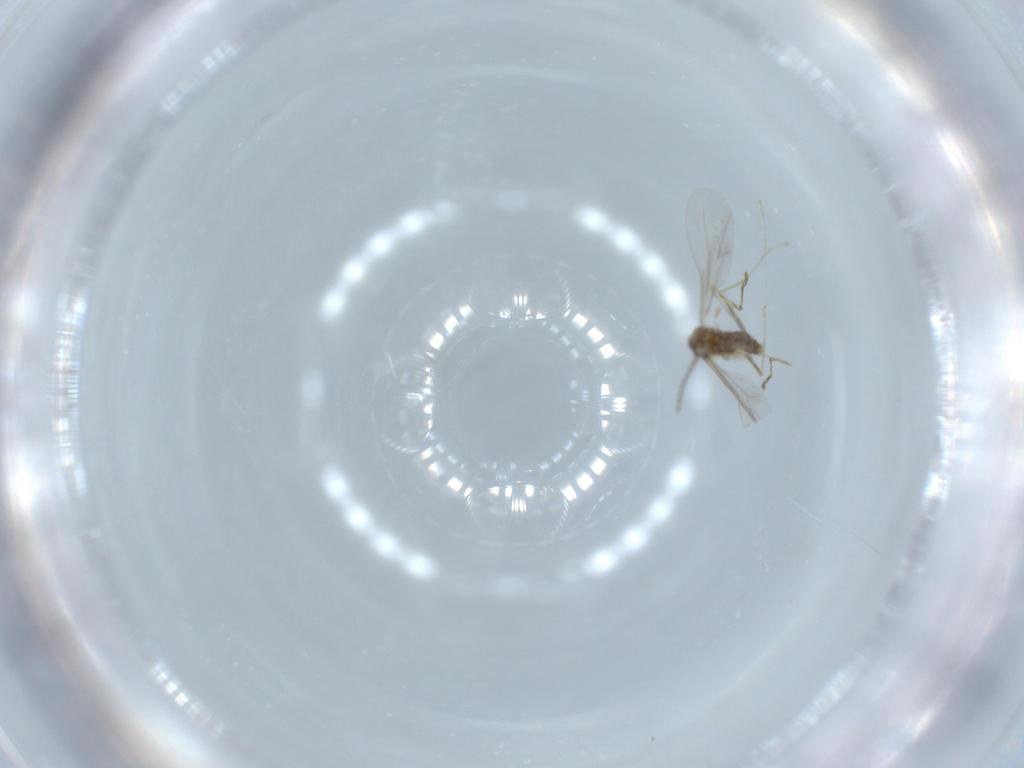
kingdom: Animalia
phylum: Arthropoda
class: Insecta
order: Diptera
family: Cecidomyiidae
